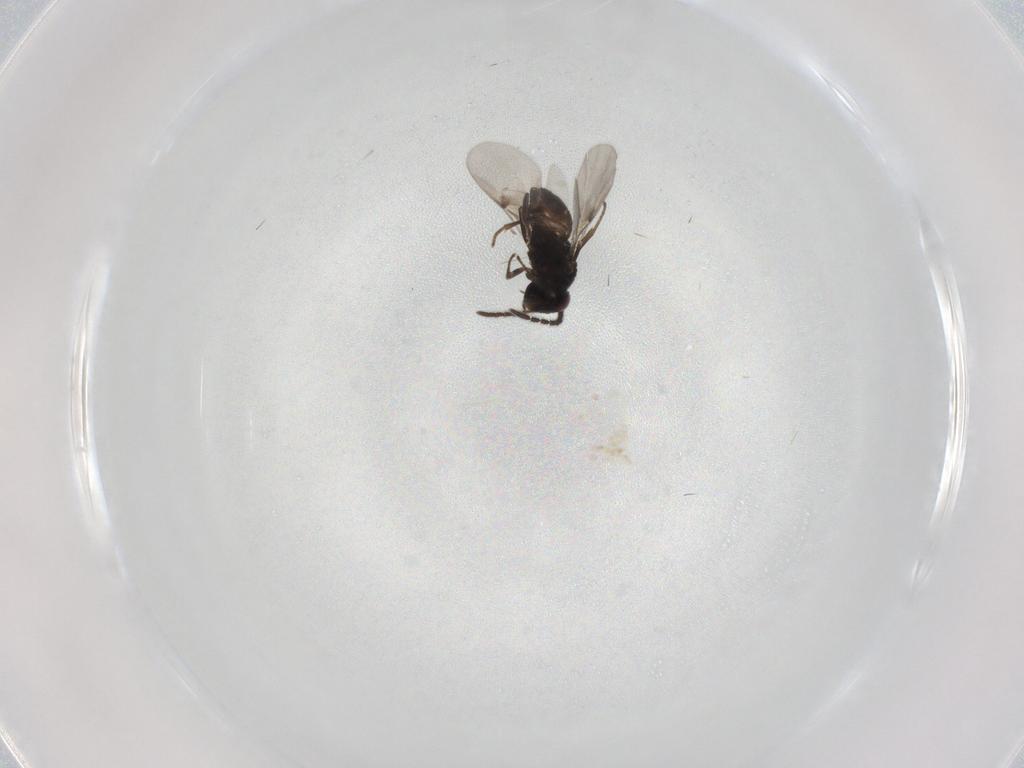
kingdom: Animalia
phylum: Arthropoda
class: Insecta
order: Hymenoptera
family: Encyrtidae
